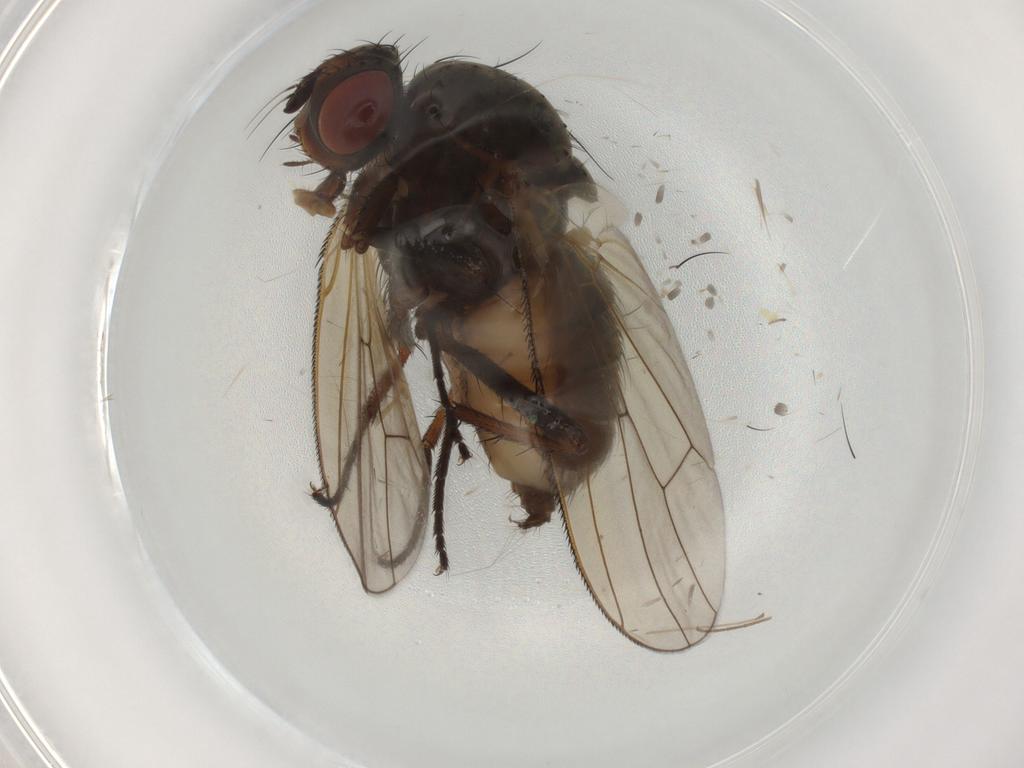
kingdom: Animalia
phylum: Arthropoda
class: Insecta
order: Diptera
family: Anthomyiidae
